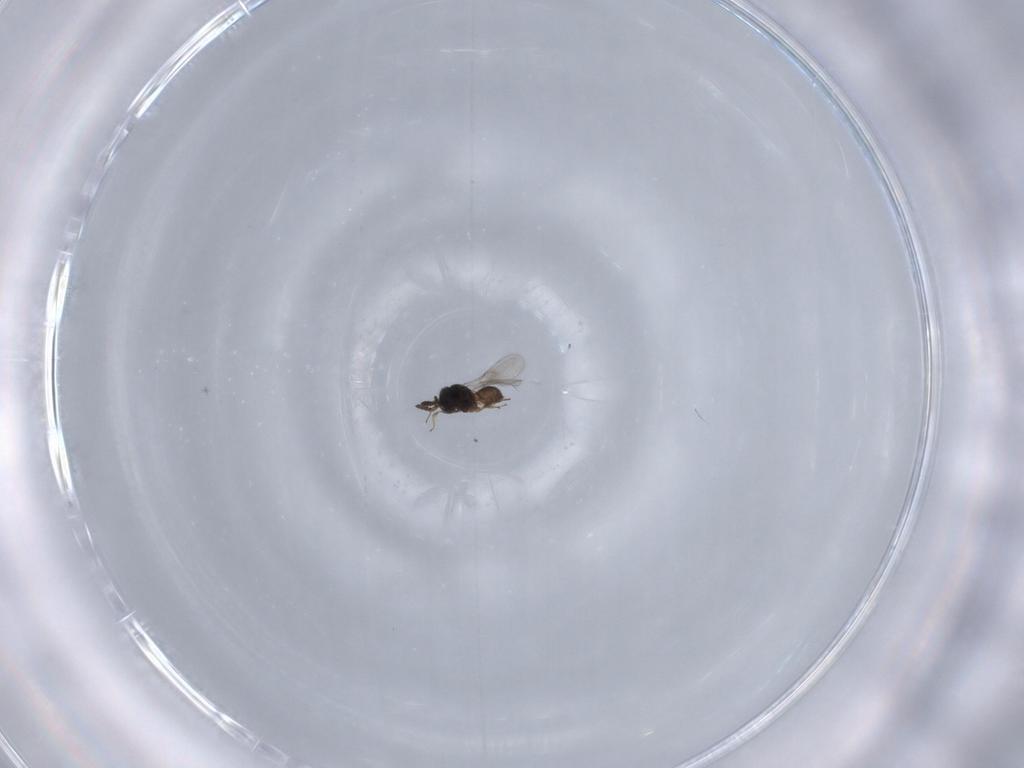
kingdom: Animalia
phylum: Arthropoda
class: Insecta
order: Hymenoptera
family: Scelionidae
